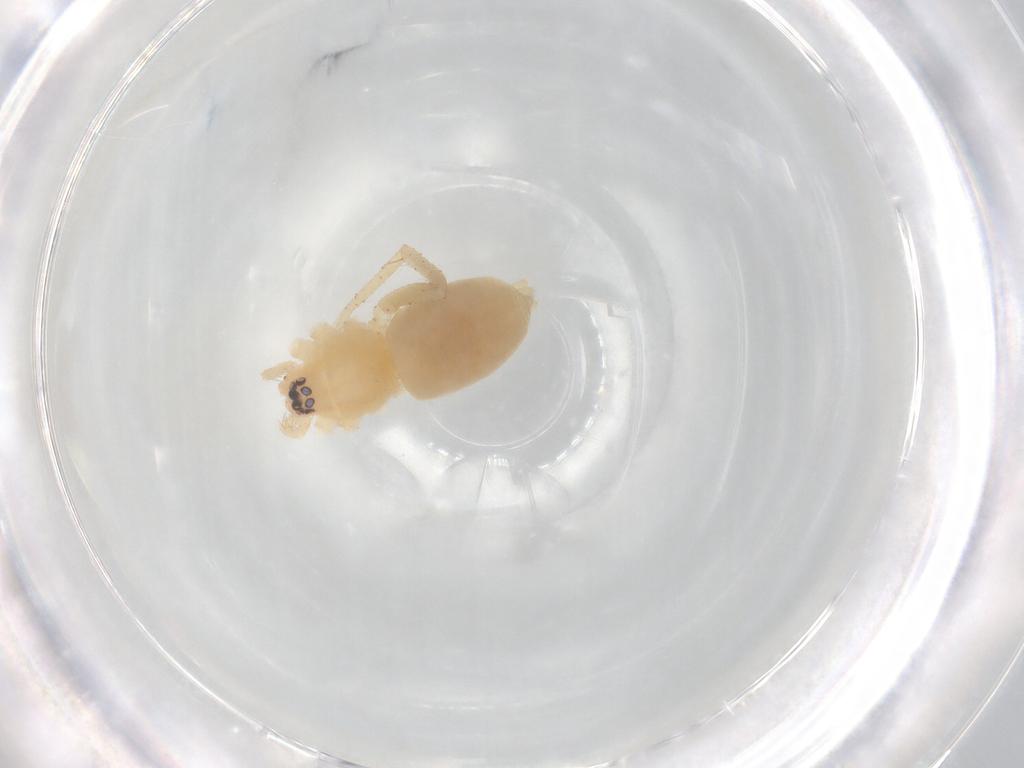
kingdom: Animalia
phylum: Arthropoda
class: Arachnida
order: Araneae
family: Gnaphosidae
